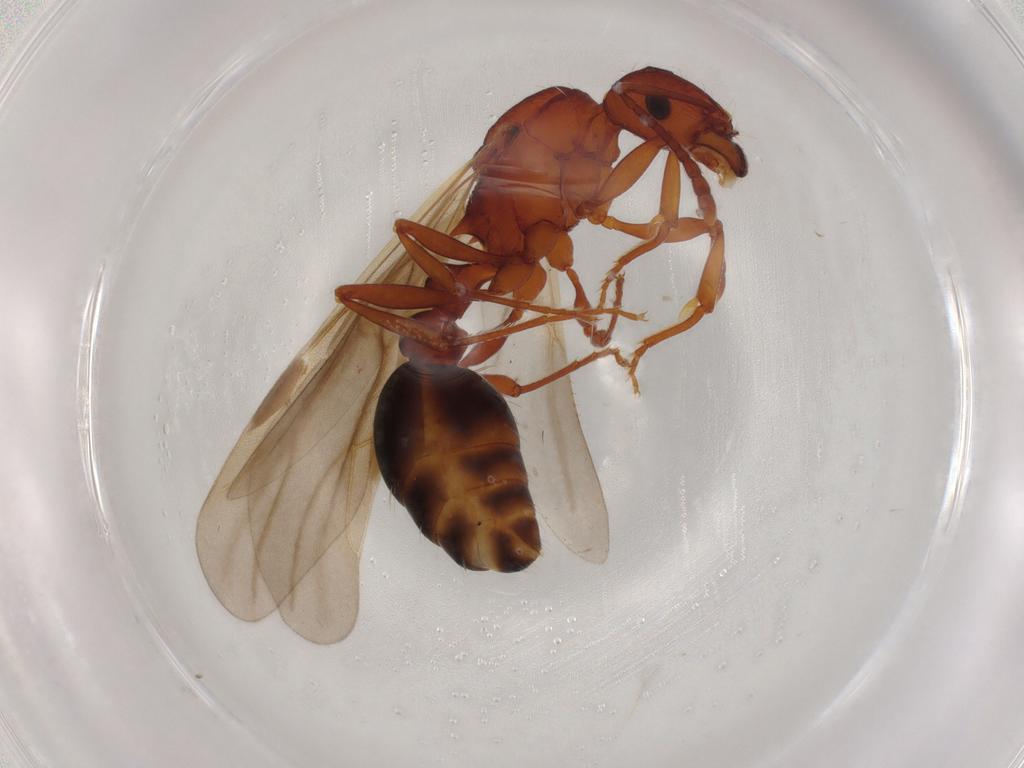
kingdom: Animalia
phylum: Arthropoda
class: Insecta
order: Hymenoptera
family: Formicidae
